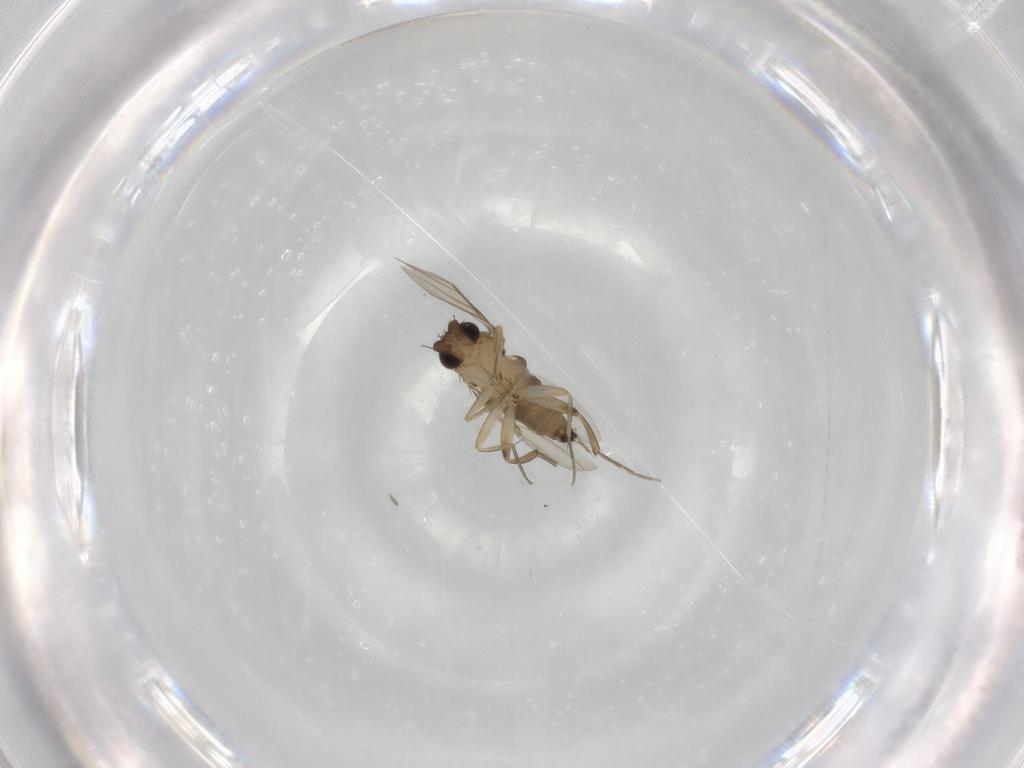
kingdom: Animalia
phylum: Arthropoda
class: Insecta
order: Diptera
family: Phoridae
